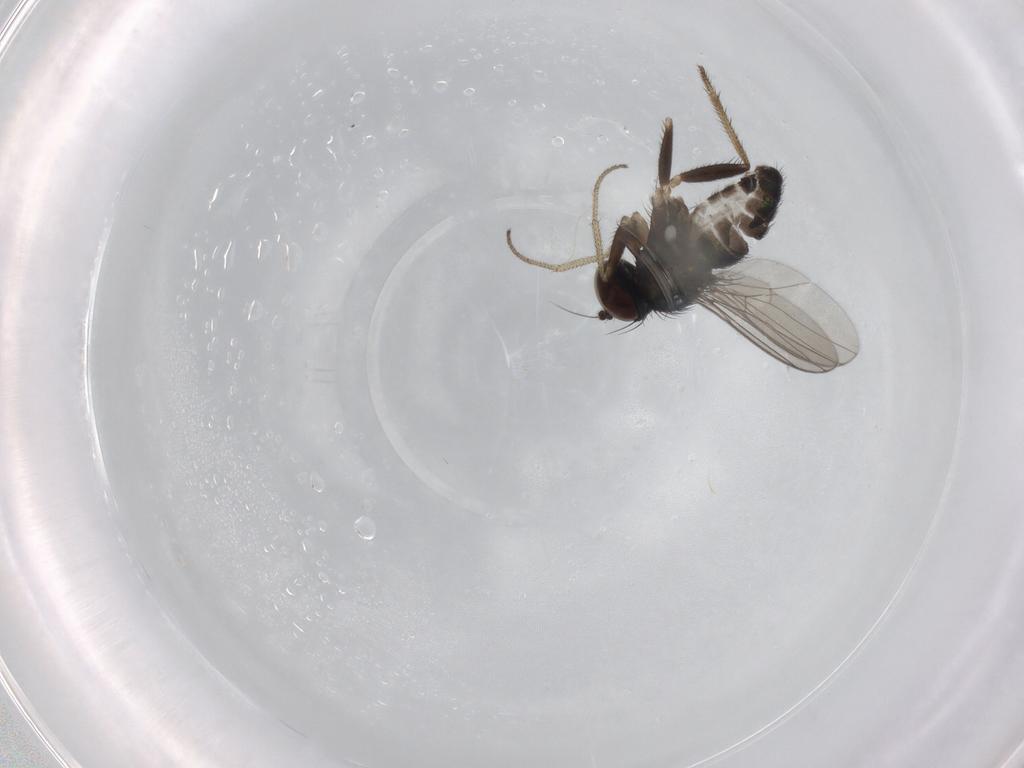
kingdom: Animalia
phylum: Arthropoda
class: Insecta
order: Diptera
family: Dolichopodidae
